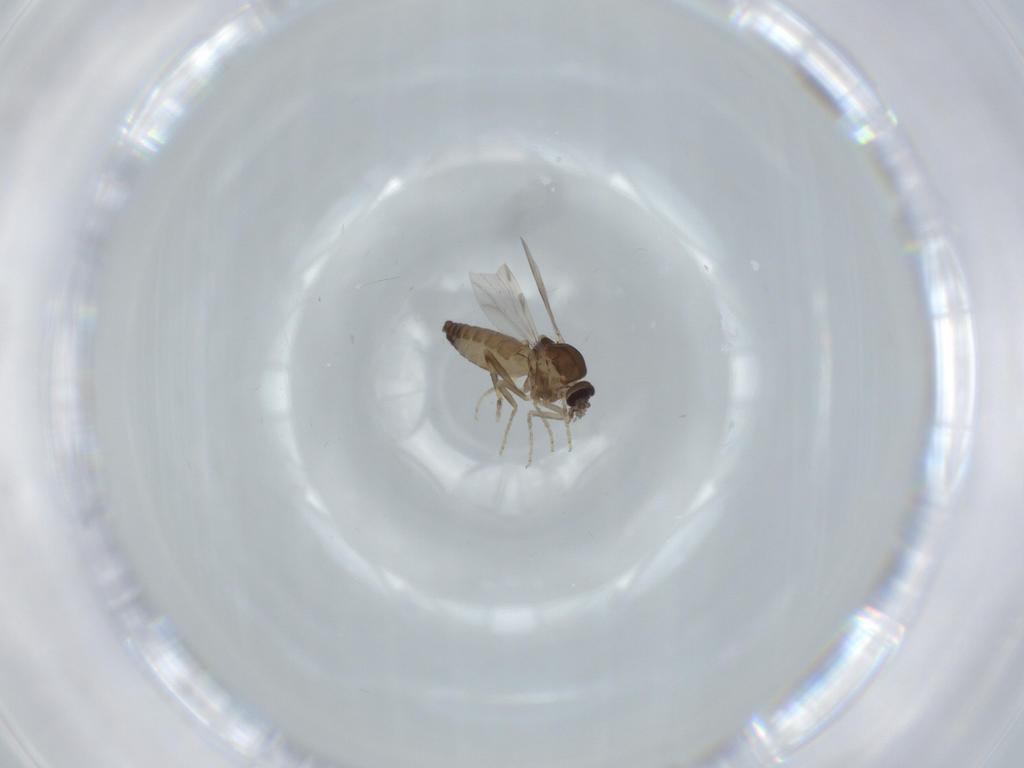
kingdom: Animalia
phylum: Arthropoda
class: Insecta
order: Diptera
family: Ceratopogonidae
